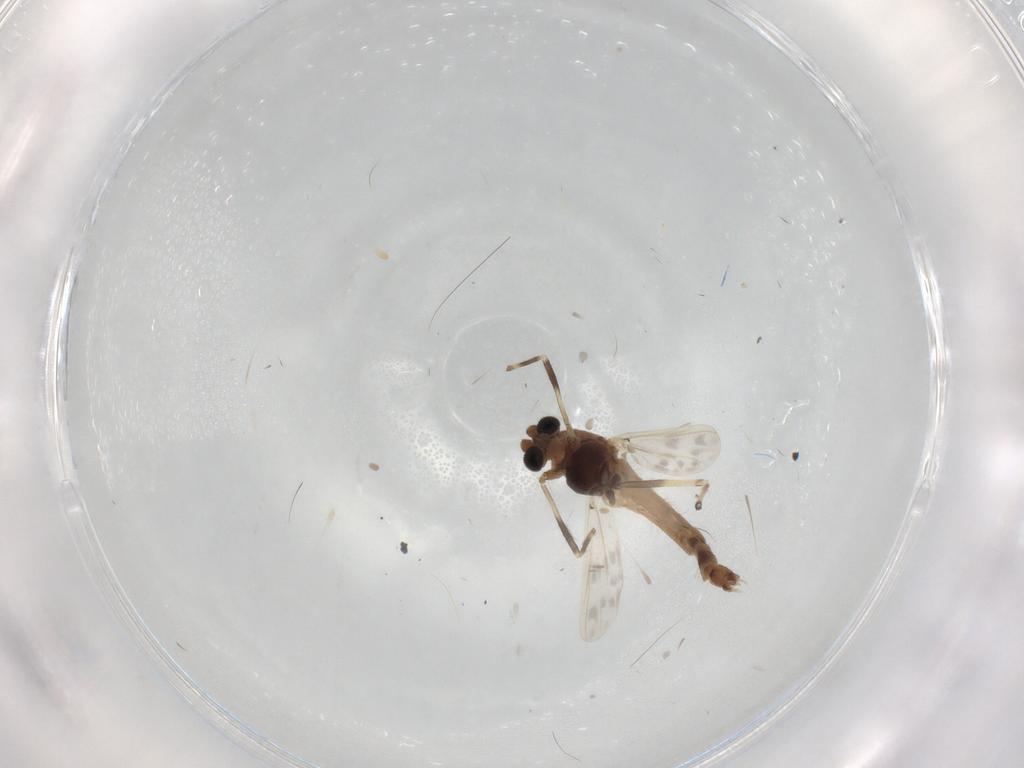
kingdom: Animalia
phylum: Arthropoda
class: Insecta
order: Diptera
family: Chironomidae
